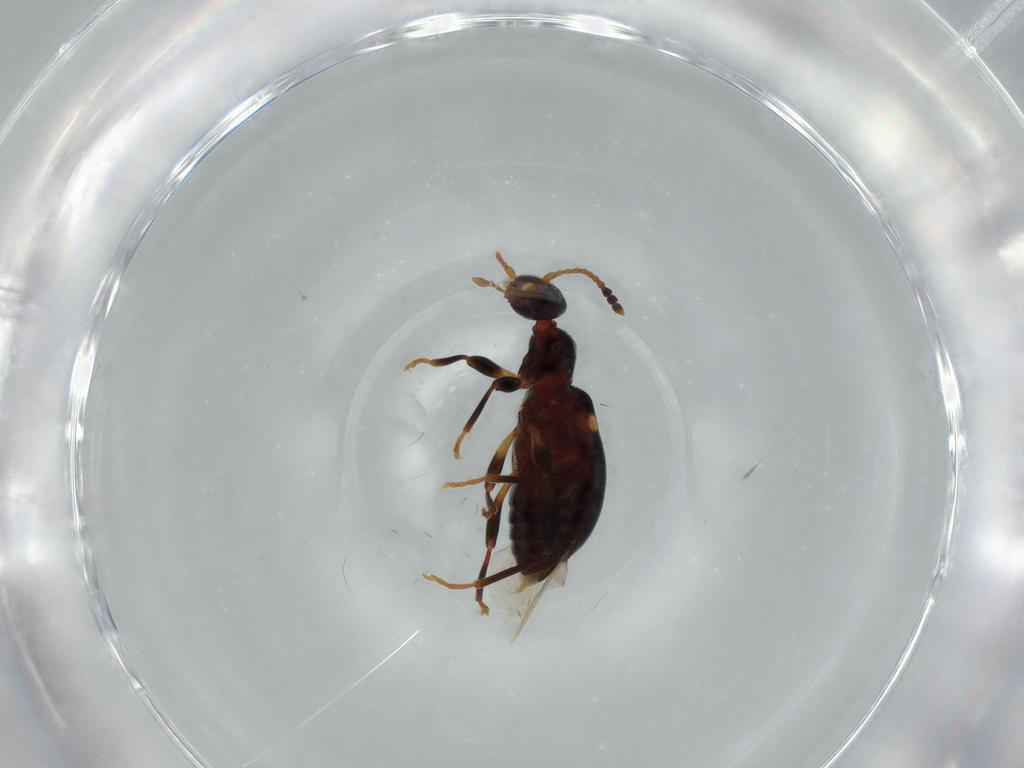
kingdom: Animalia
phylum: Arthropoda
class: Insecta
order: Coleoptera
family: Anthicidae
